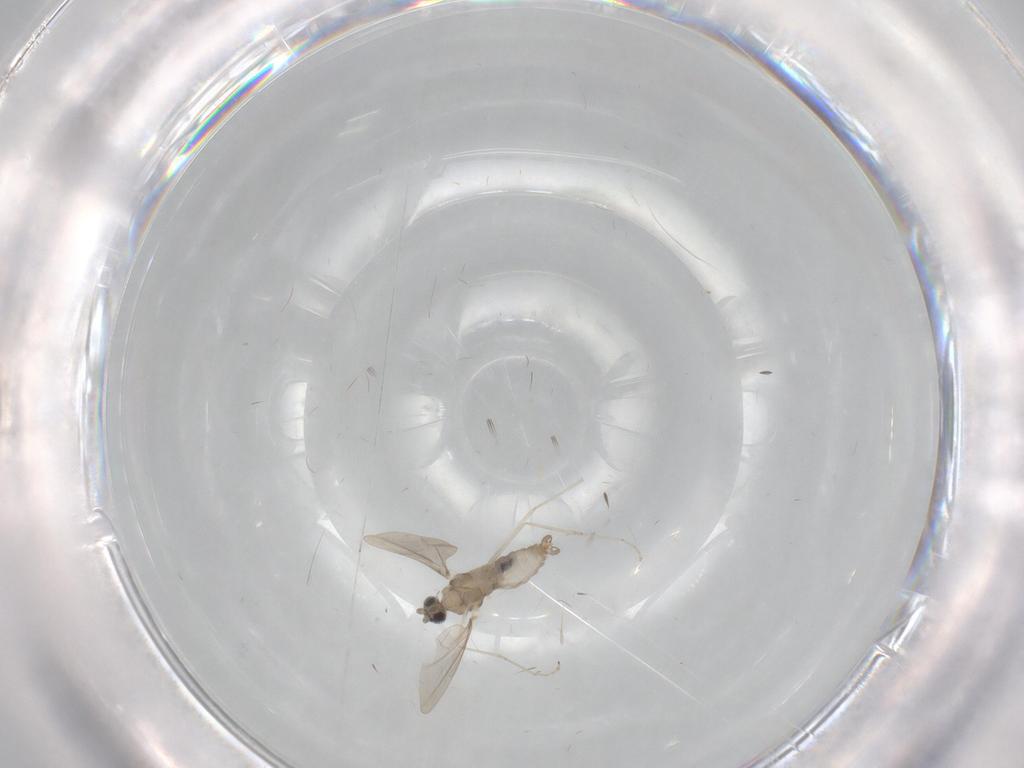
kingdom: Animalia
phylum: Arthropoda
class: Insecta
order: Diptera
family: Cecidomyiidae
